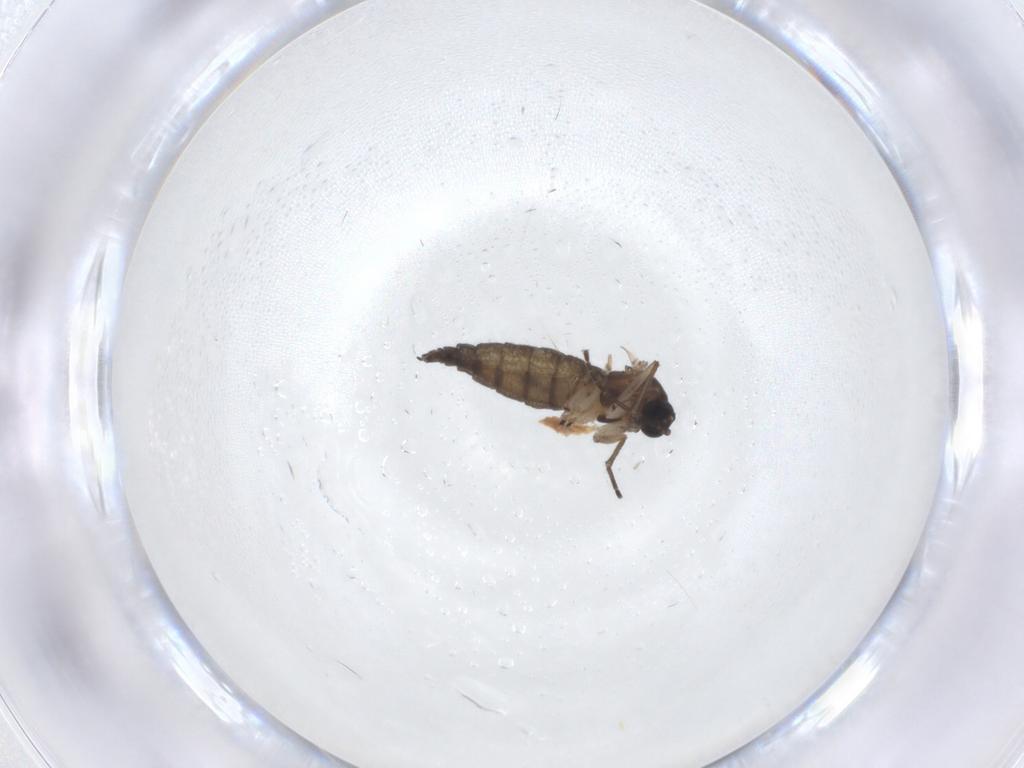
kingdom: Animalia
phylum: Arthropoda
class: Insecta
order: Diptera
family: Sciaridae
